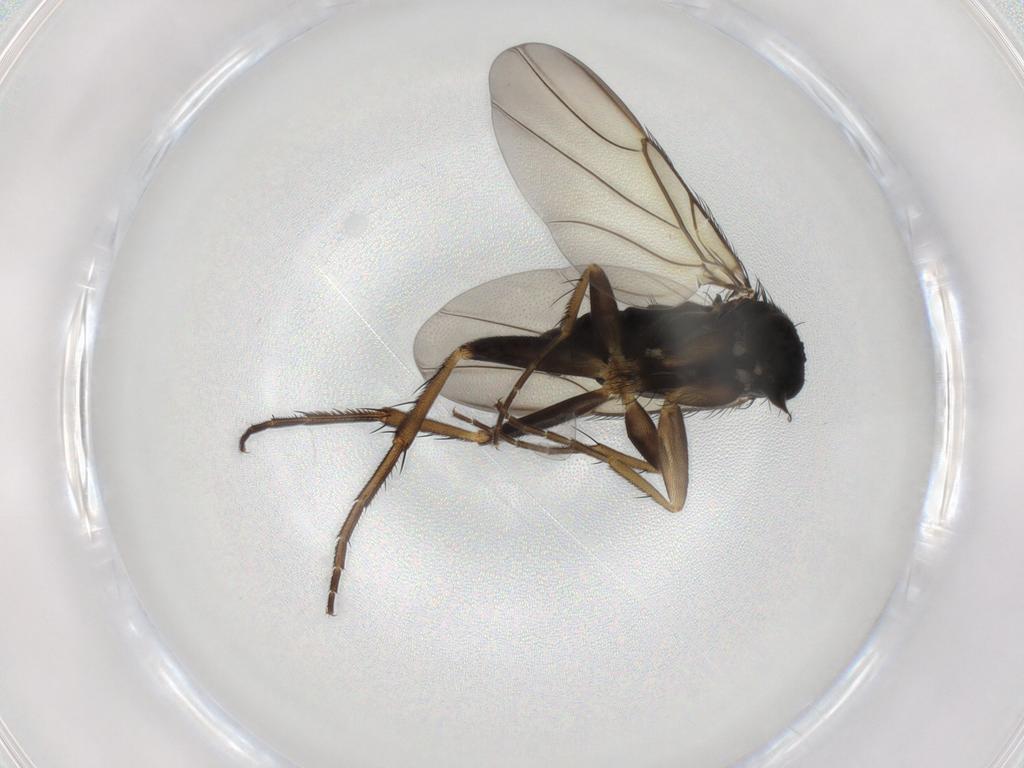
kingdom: Animalia
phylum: Arthropoda
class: Insecta
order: Diptera
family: Phoridae
